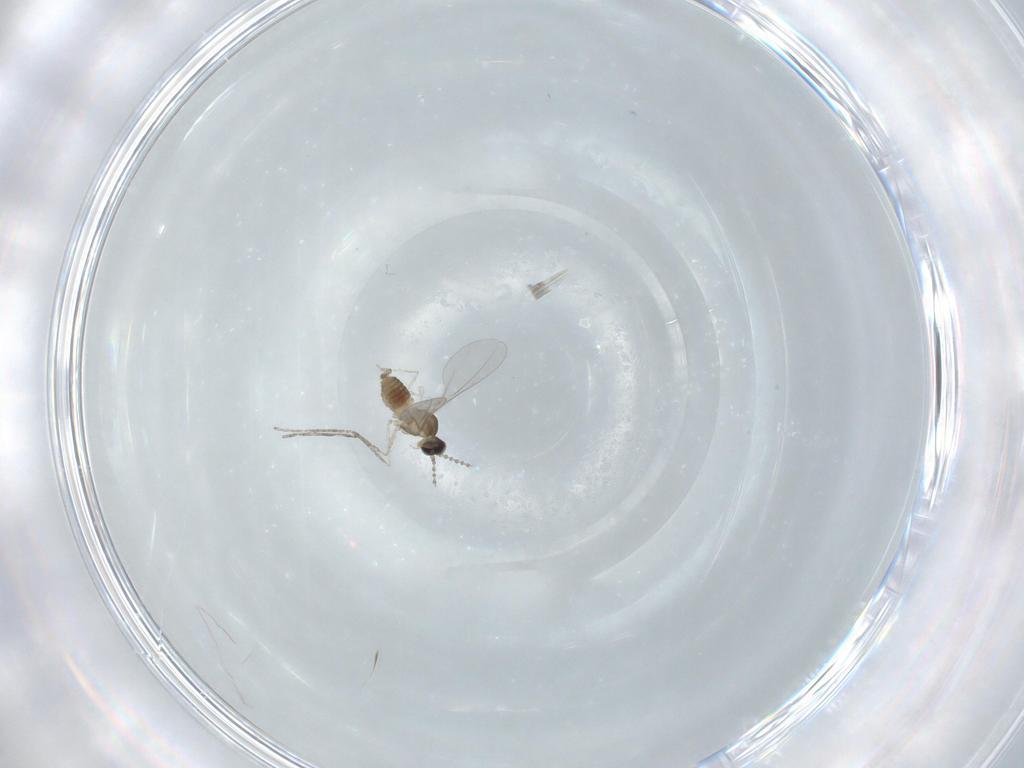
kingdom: Animalia
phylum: Arthropoda
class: Insecta
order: Diptera
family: Cecidomyiidae
